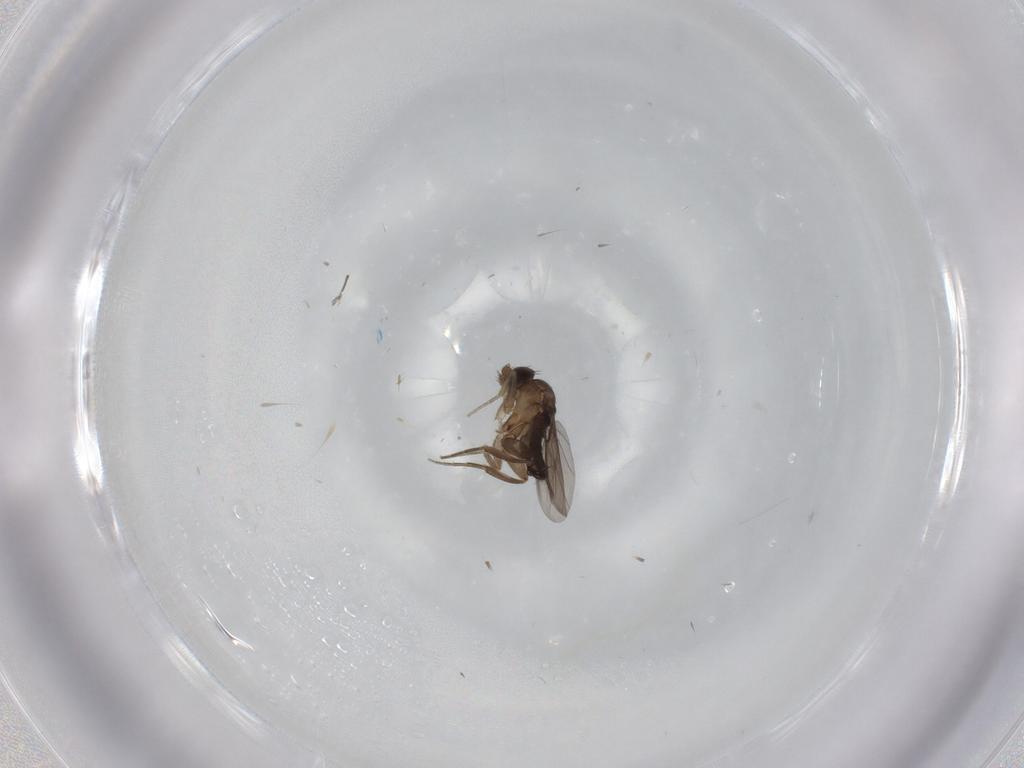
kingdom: Animalia
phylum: Arthropoda
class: Insecta
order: Diptera
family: Phoridae
